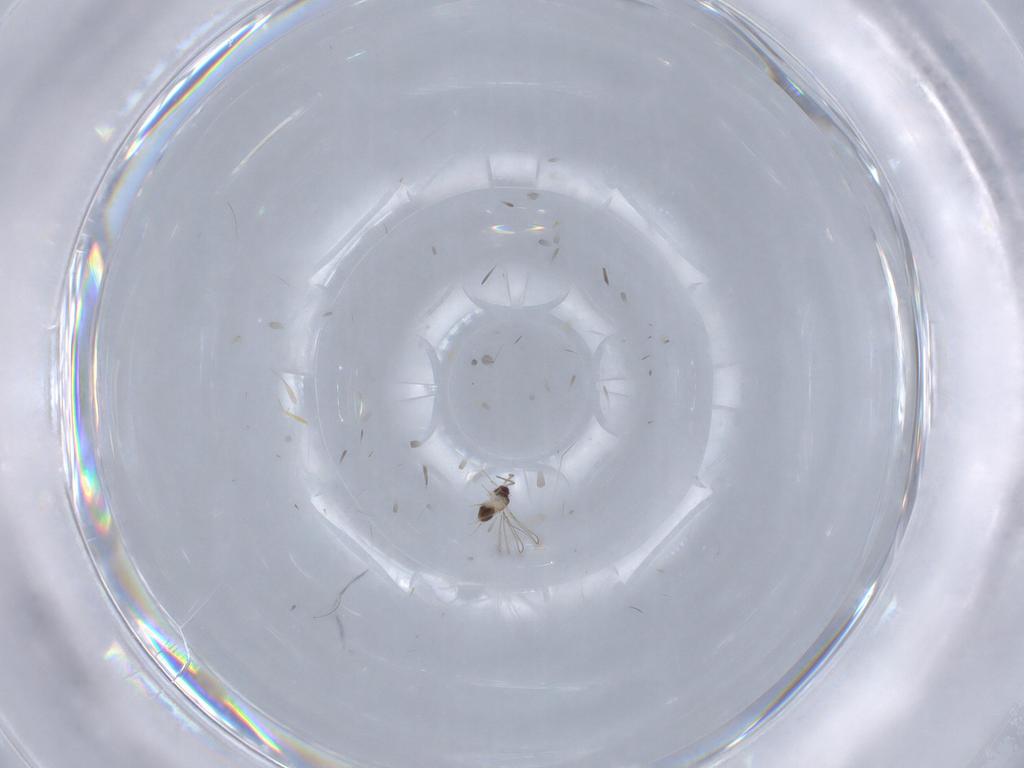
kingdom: Animalia
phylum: Arthropoda
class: Insecta
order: Hymenoptera
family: Mymaridae
